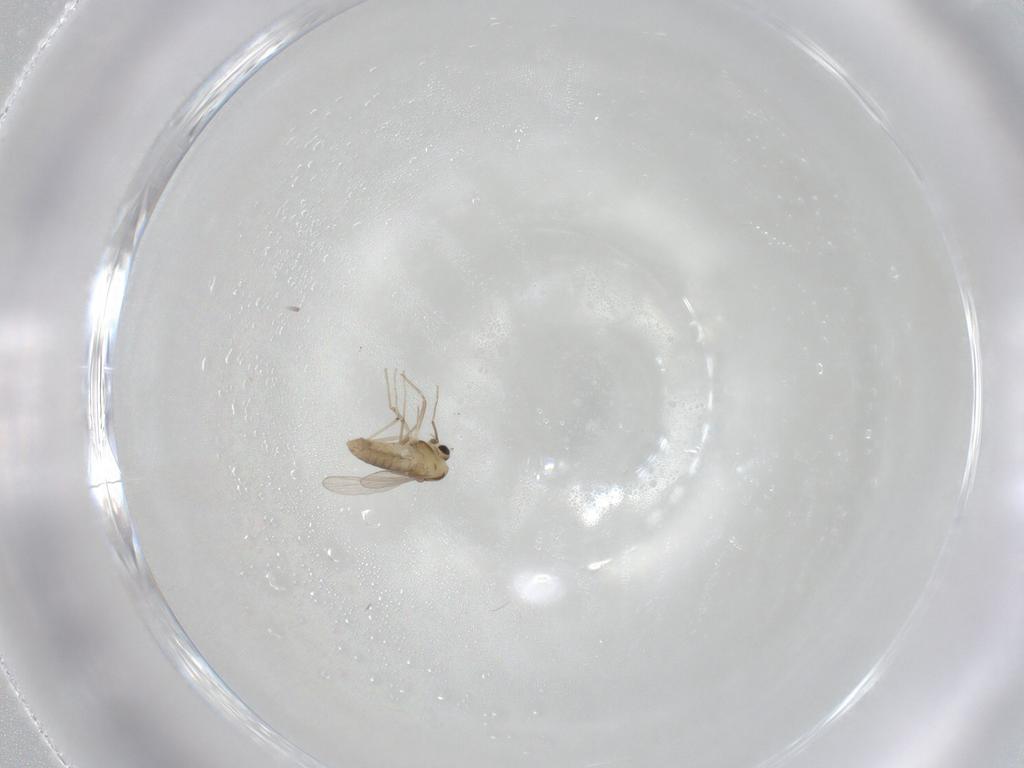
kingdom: Animalia
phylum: Arthropoda
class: Insecta
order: Diptera
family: Chironomidae
